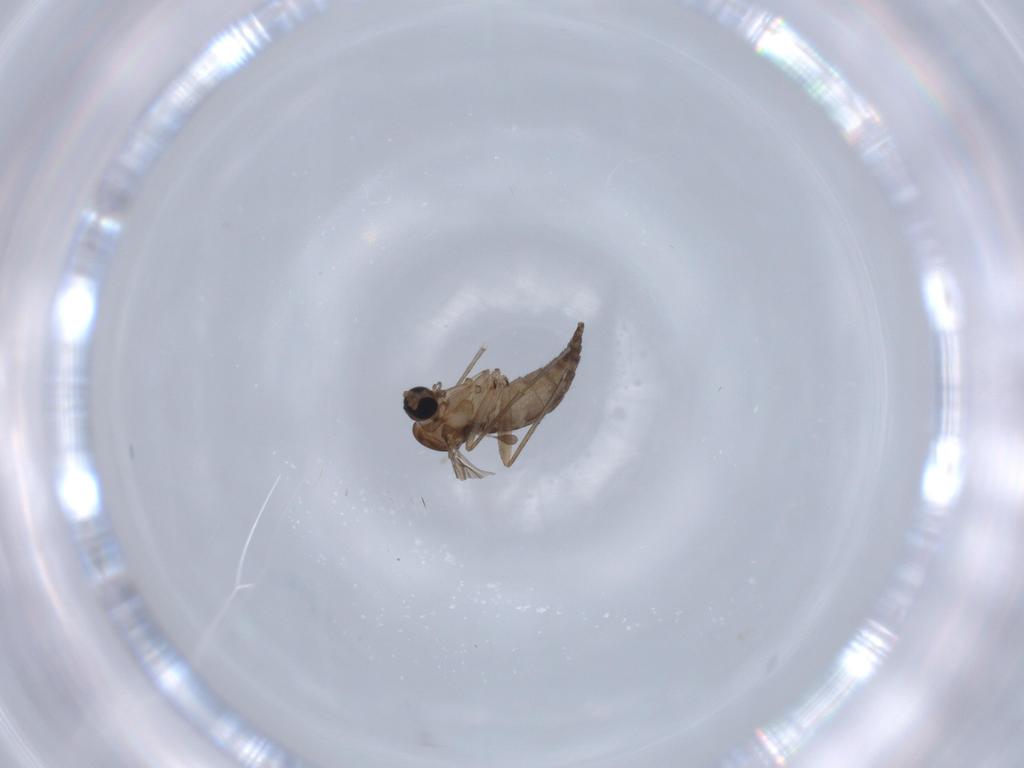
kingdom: Animalia
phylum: Arthropoda
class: Insecta
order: Diptera
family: Sciaridae
